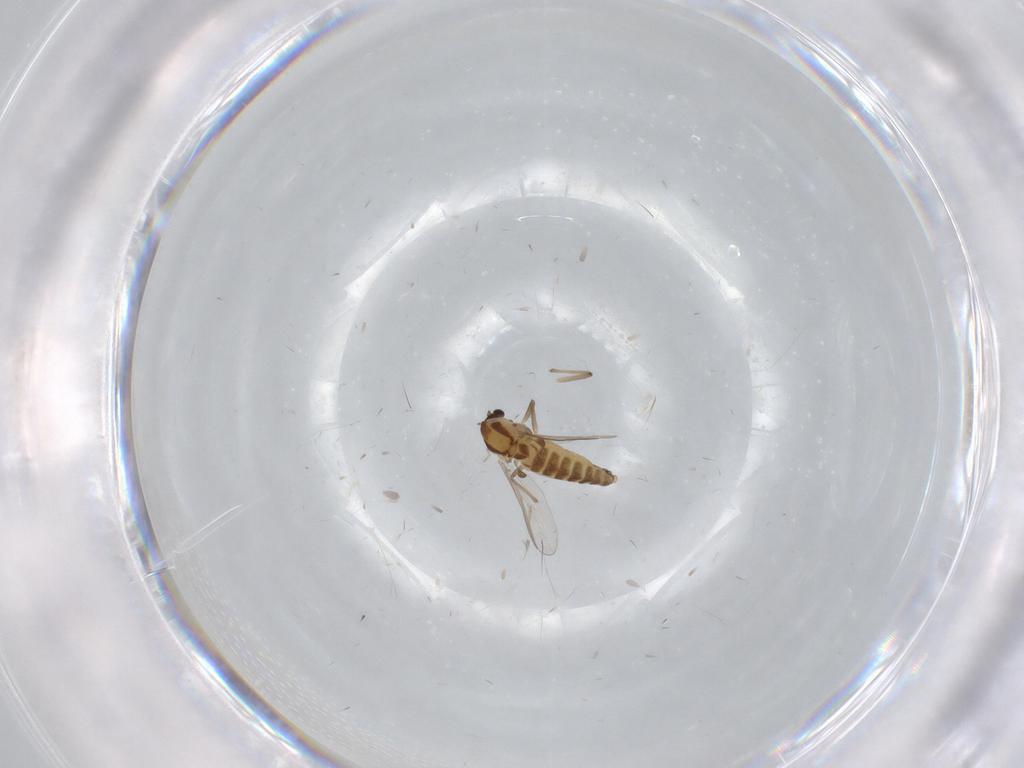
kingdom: Animalia
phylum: Arthropoda
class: Insecta
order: Diptera
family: Chironomidae
